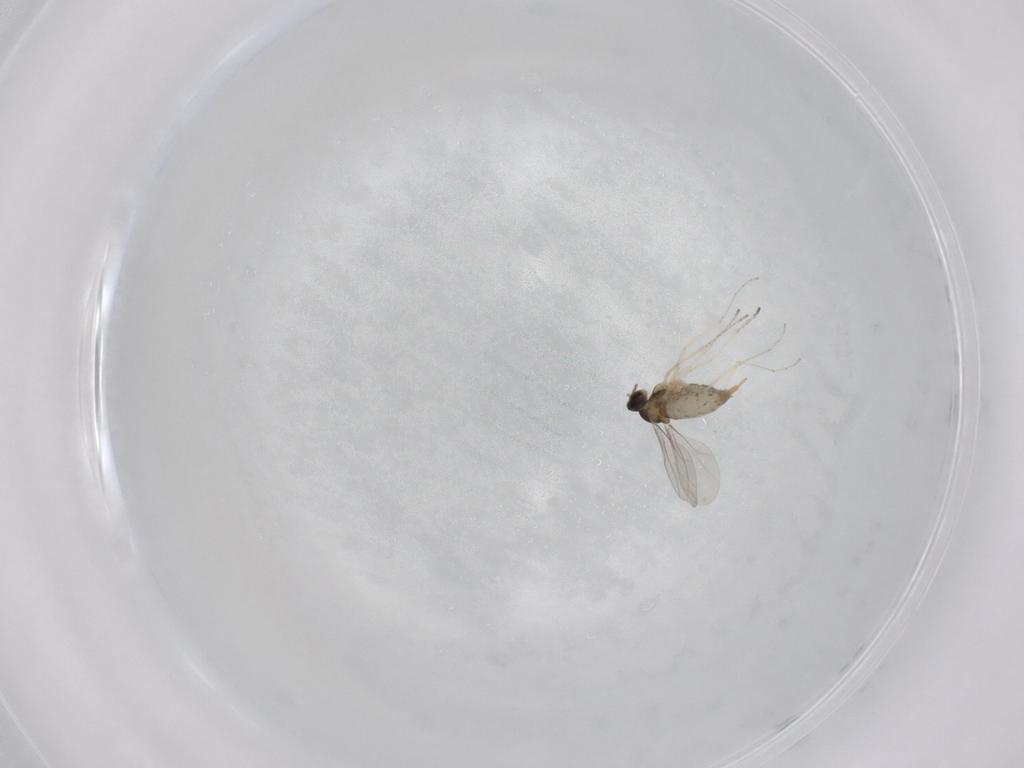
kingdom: Animalia
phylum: Arthropoda
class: Insecta
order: Diptera
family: Cecidomyiidae
